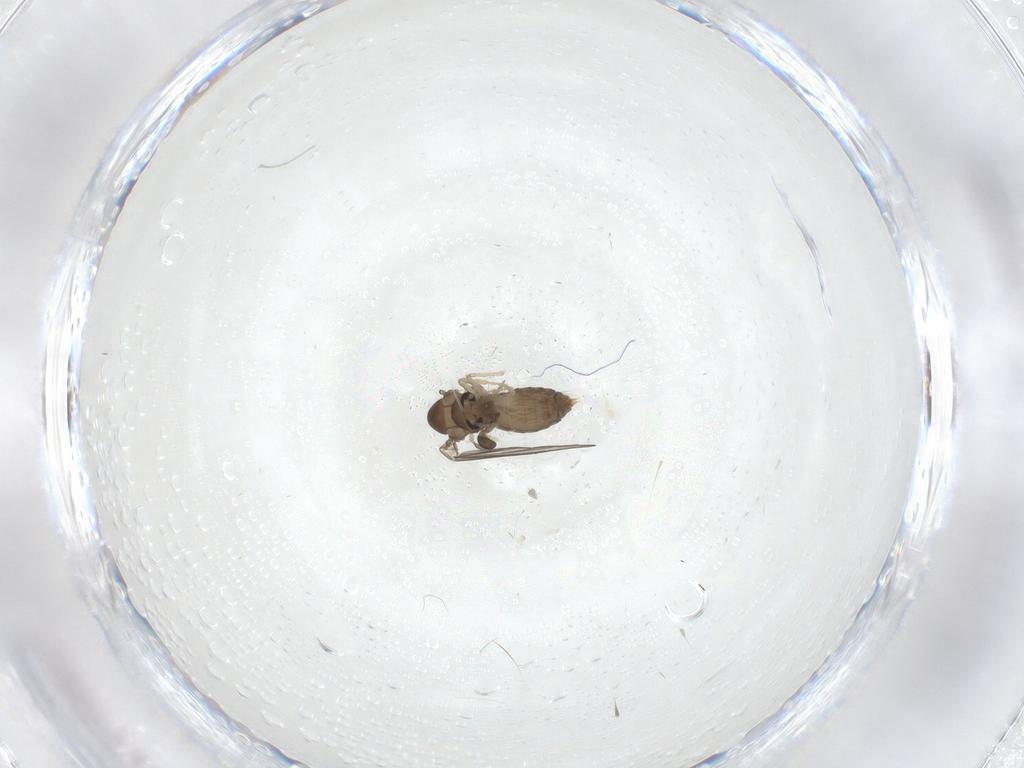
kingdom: Animalia
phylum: Arthropoda
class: Insecta
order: Diptera
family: Psychodidae
